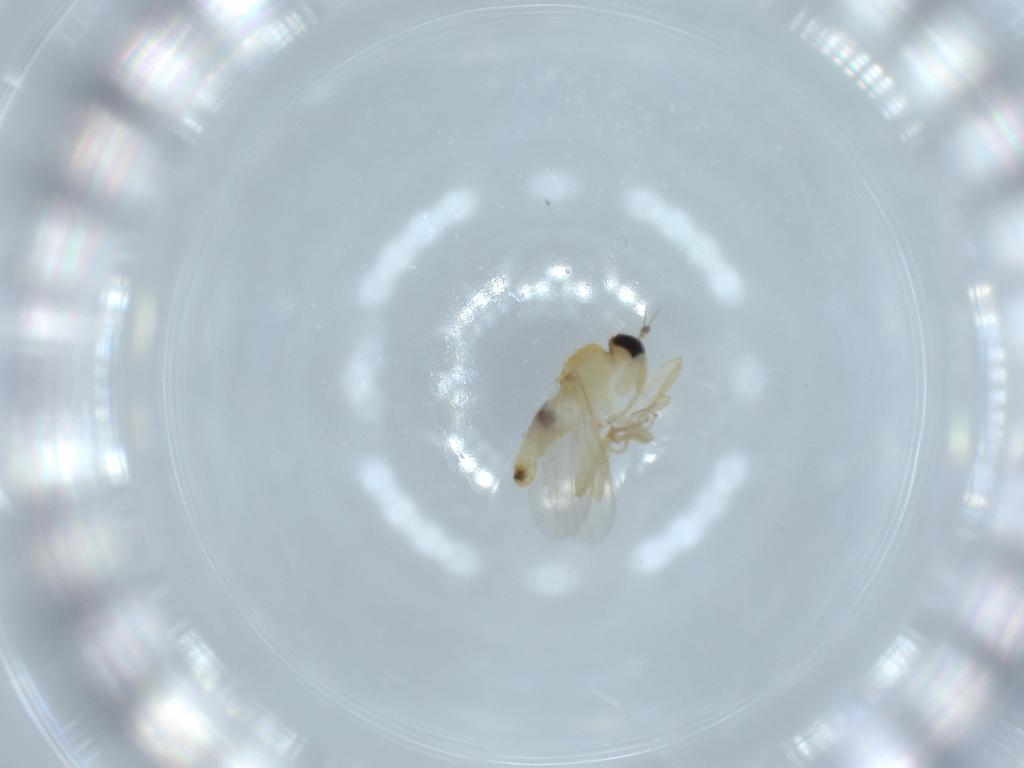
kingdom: Animalia
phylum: Arthropoda
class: Insecta
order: Diptera
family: Hybotidae
